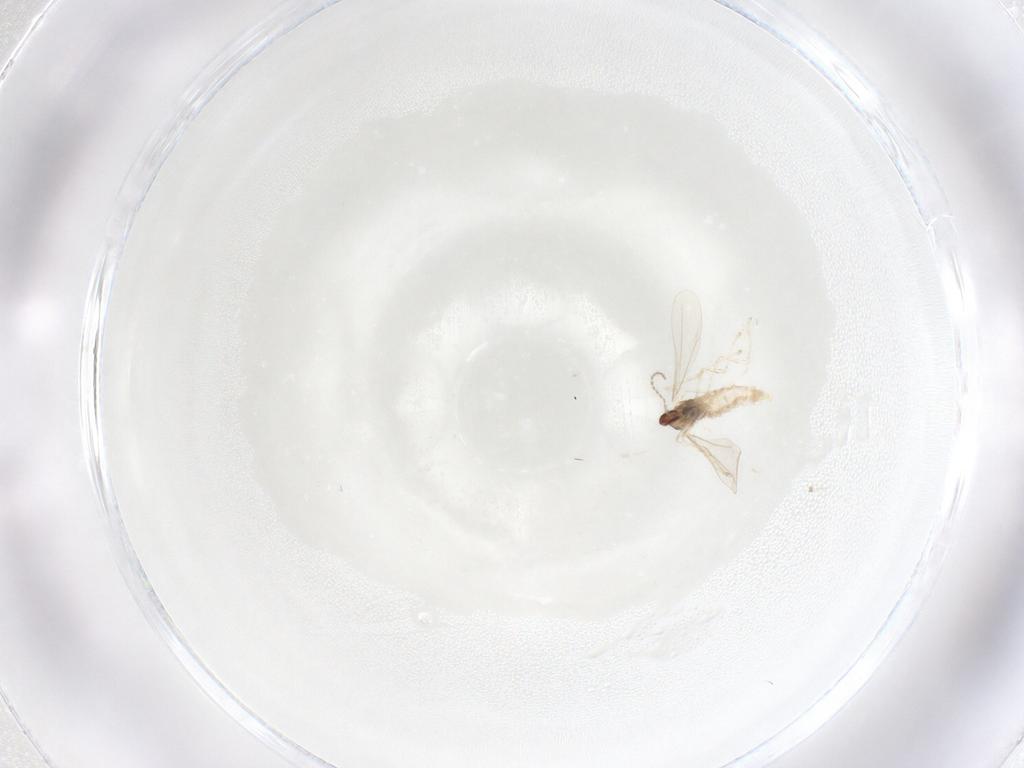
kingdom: Animalia
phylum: Arthropoda
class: Insecta
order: Diptera
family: Cecidomyiidae
